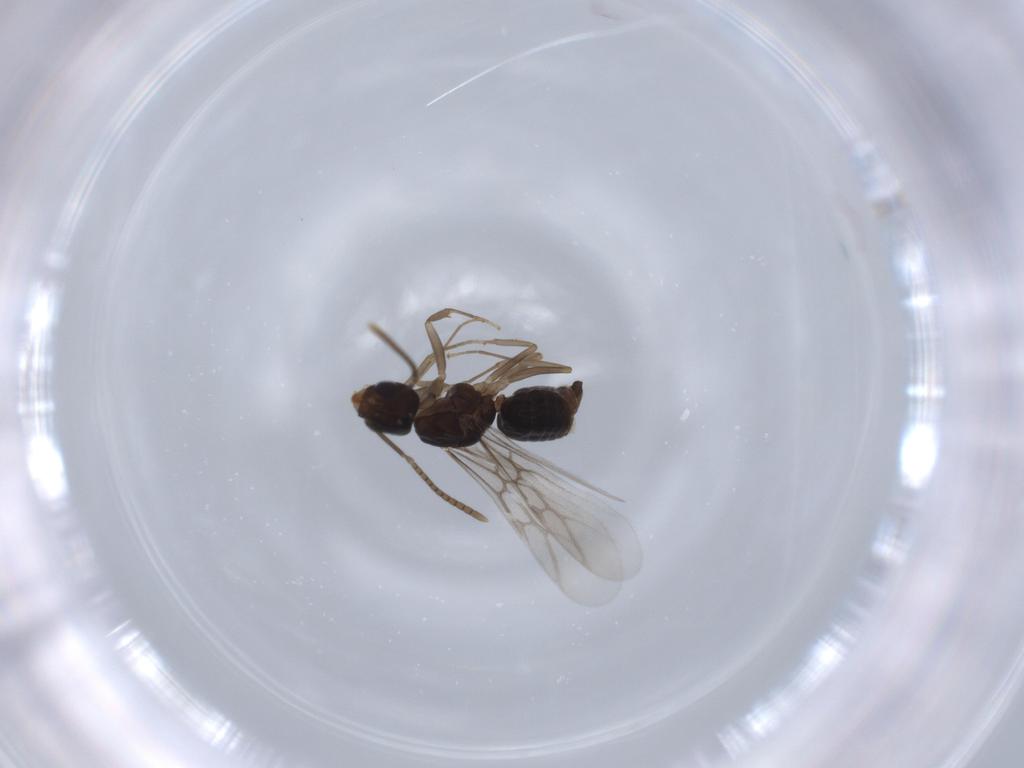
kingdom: Animalia
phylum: Arthropoda
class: Insecta
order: Hymenoptera
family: Formicidae
